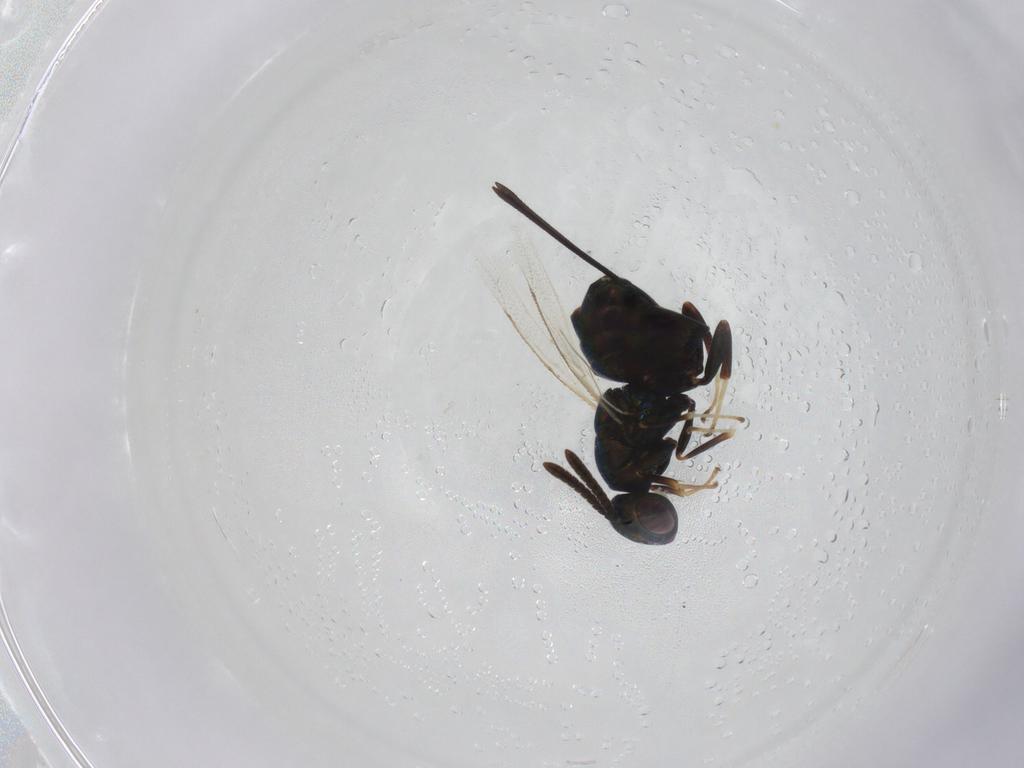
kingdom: Animalia
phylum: Arthropoda
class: Insecta
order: Hymenoptera
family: Torymidae
